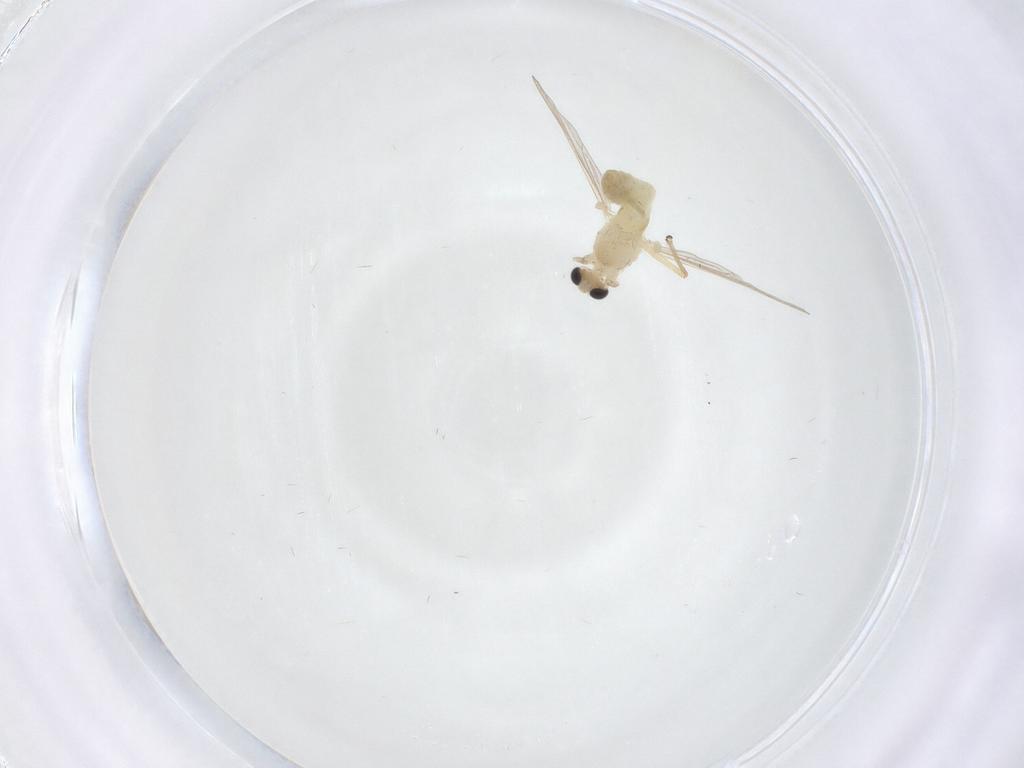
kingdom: Animalia
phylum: Arthropoda
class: Insecta
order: Diptera
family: Chironomidae
